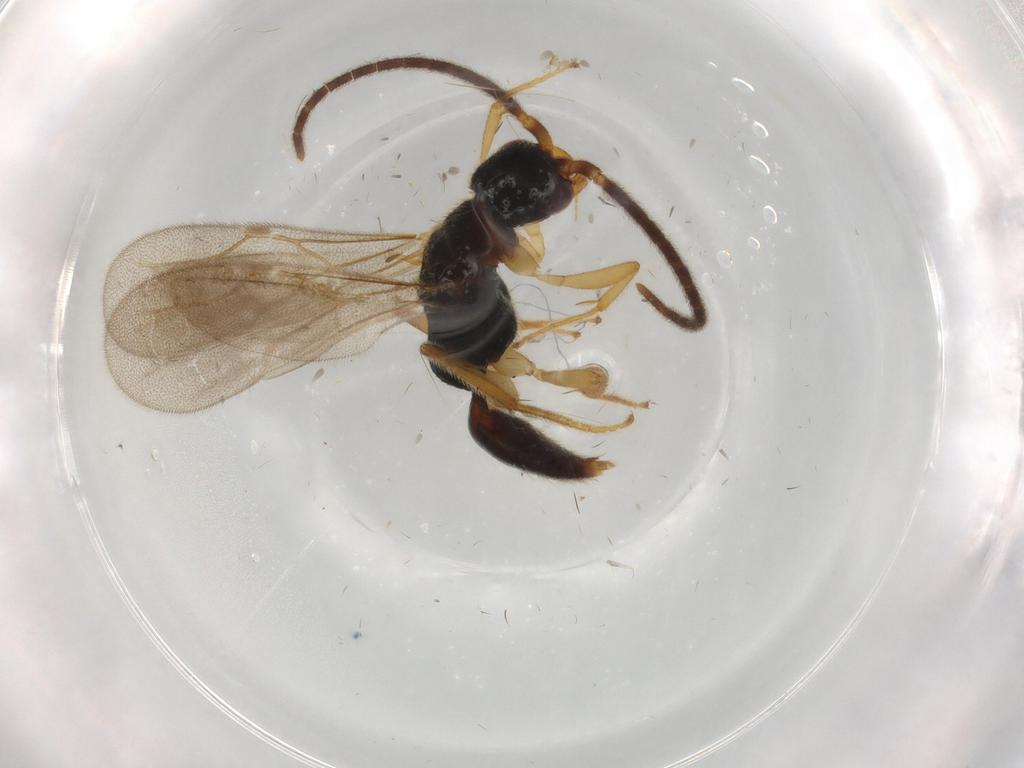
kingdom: Animalia
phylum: Arthropoda
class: Insecta
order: Hymenoptera
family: Bethylidae
